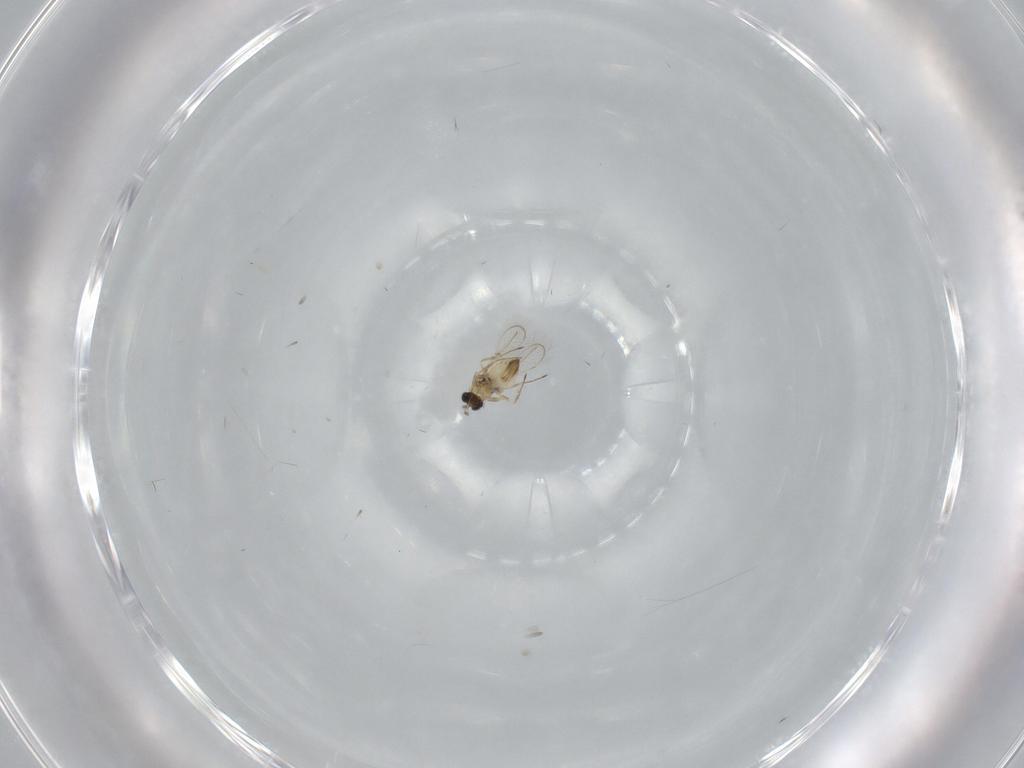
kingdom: Animalia
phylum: Arthropoda
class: Insecta
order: Hymenoptera
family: Trichogrammatidae
